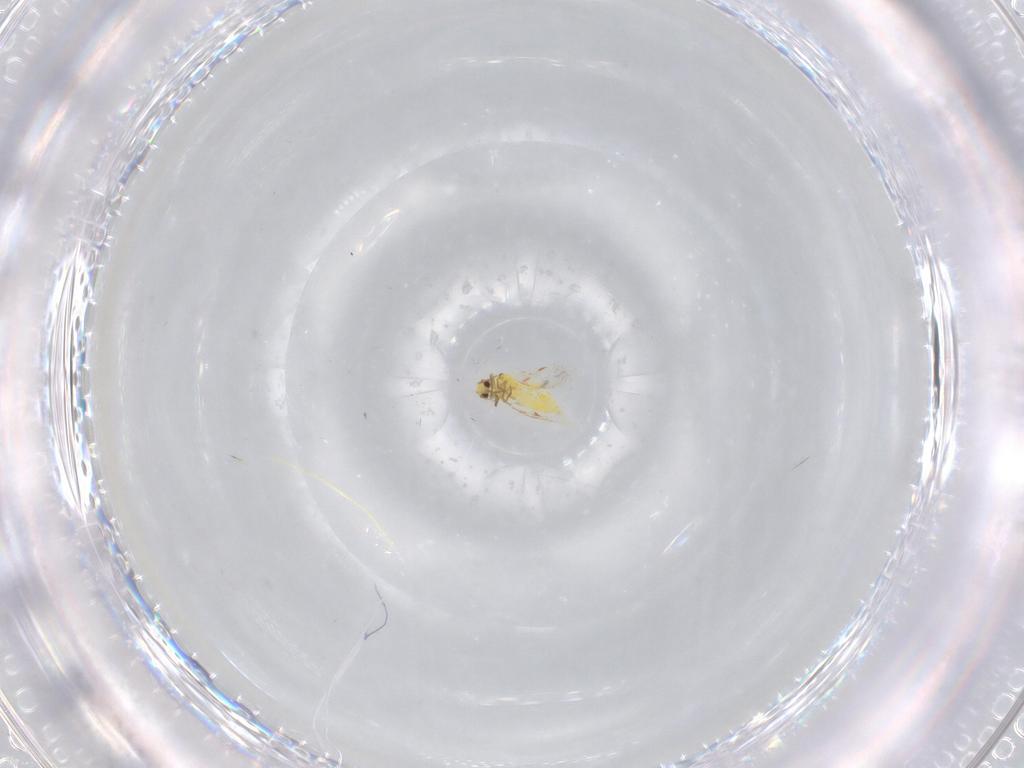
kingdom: Animalia
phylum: Arthropoda
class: Insecta
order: Hemiptera
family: Aleyrodidae
